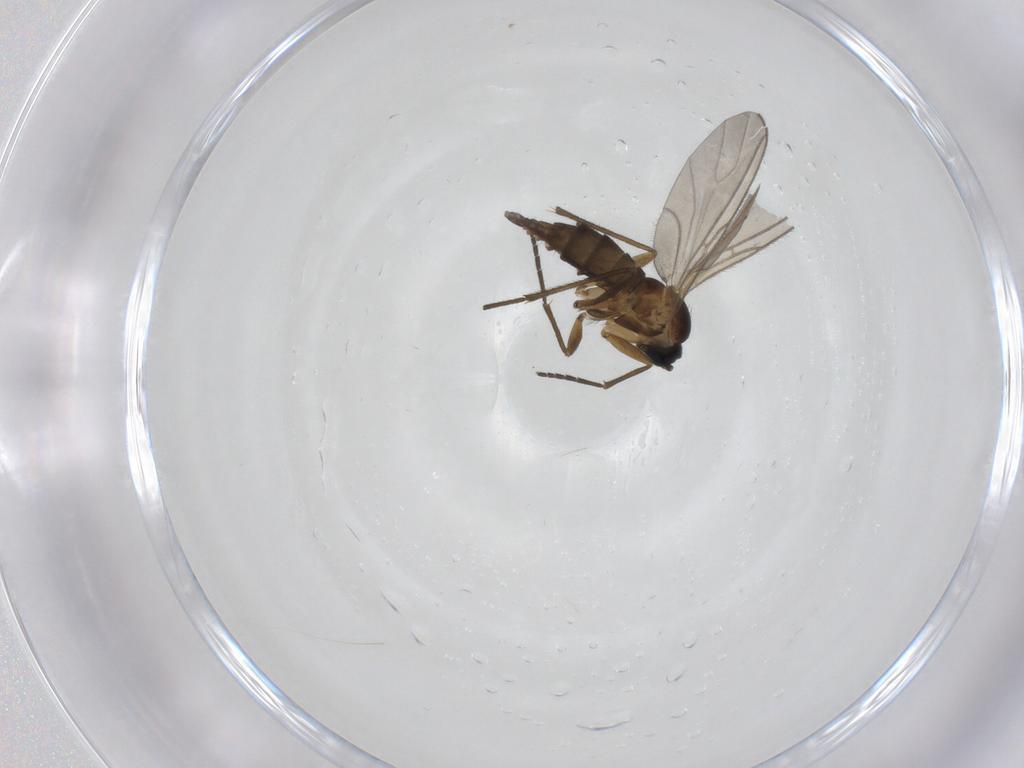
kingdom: Animalia
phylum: Arthropoda
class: Insecta
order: Diptera
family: Sciaridae
